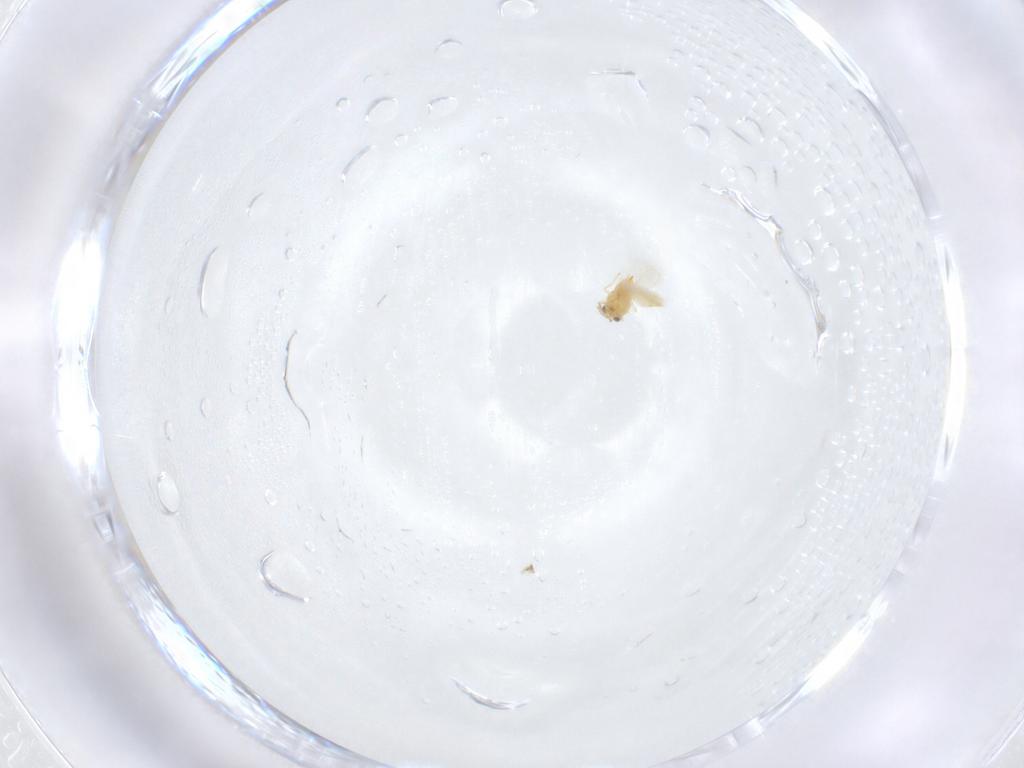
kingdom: Animalia
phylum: Arthropoda
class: Insecta
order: Hymenoptera
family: Aphelinidae
